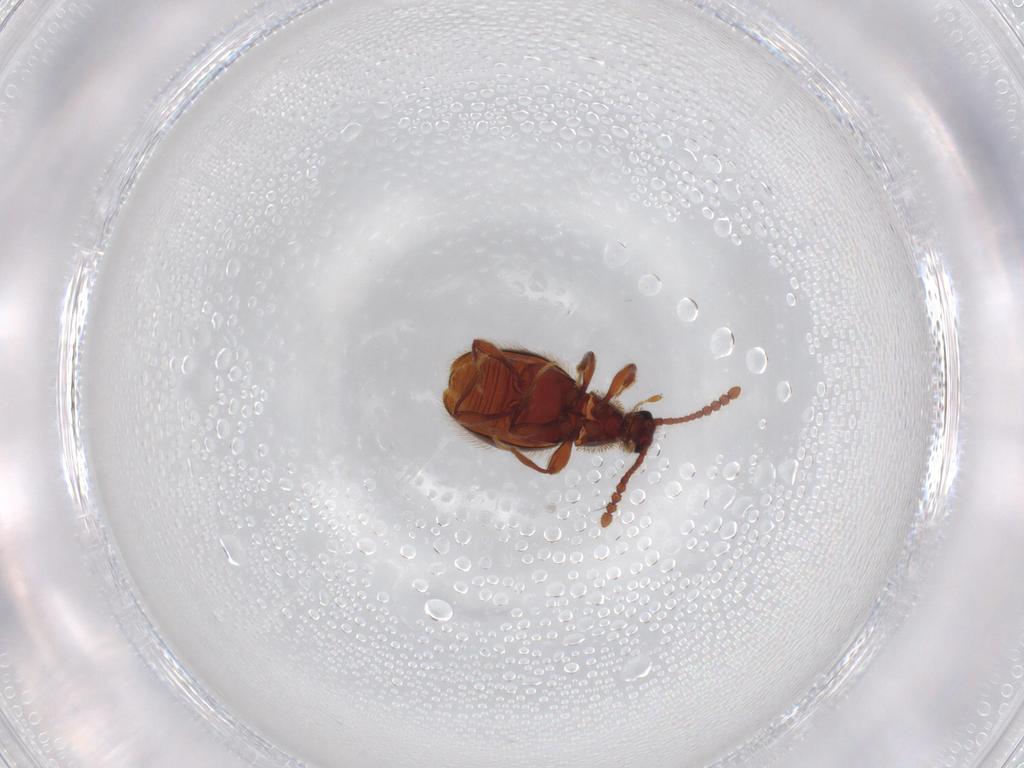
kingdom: Animalia
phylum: Arthropoda
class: Insecta
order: Coleoptera
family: Staphylinidae
